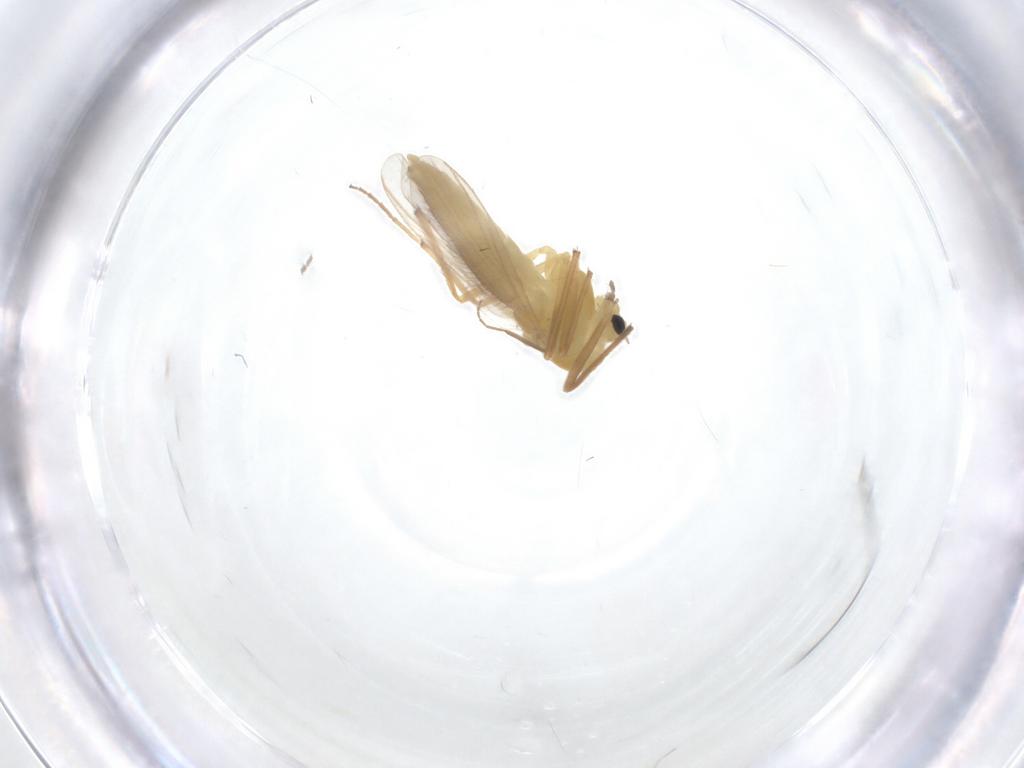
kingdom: Animalia
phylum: Arthropoda
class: Insecta
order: Diptera
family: Chironomidae
